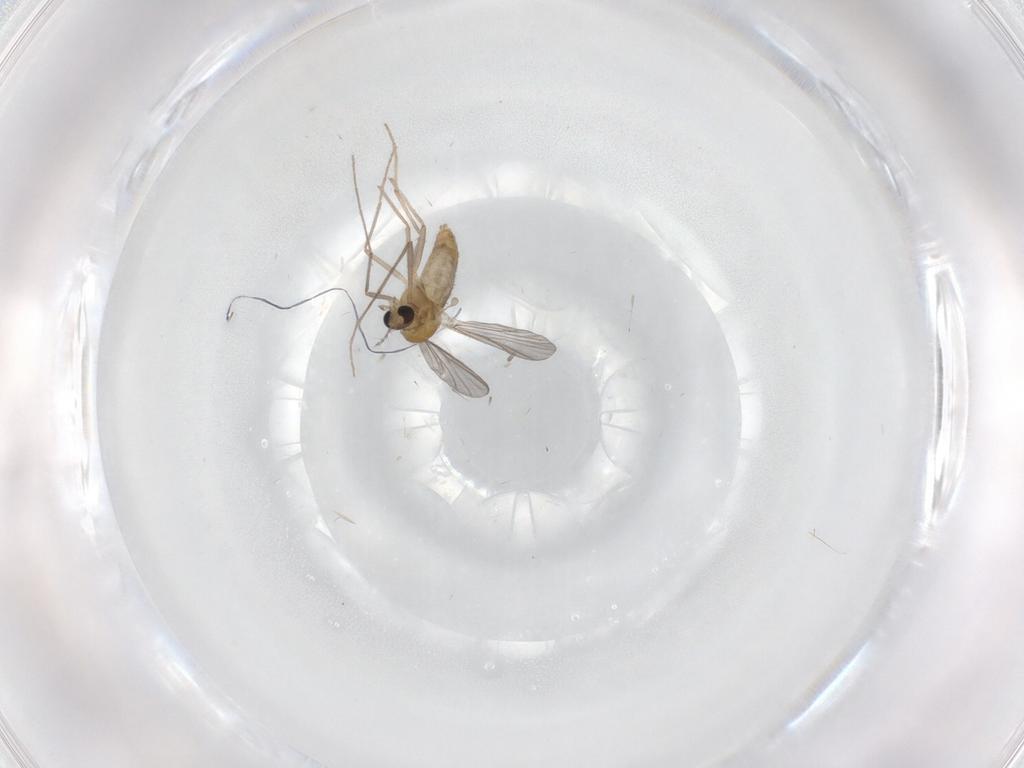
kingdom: Animalia
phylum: Arthropoda
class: Insecta
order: Diptera
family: Chironomidae
